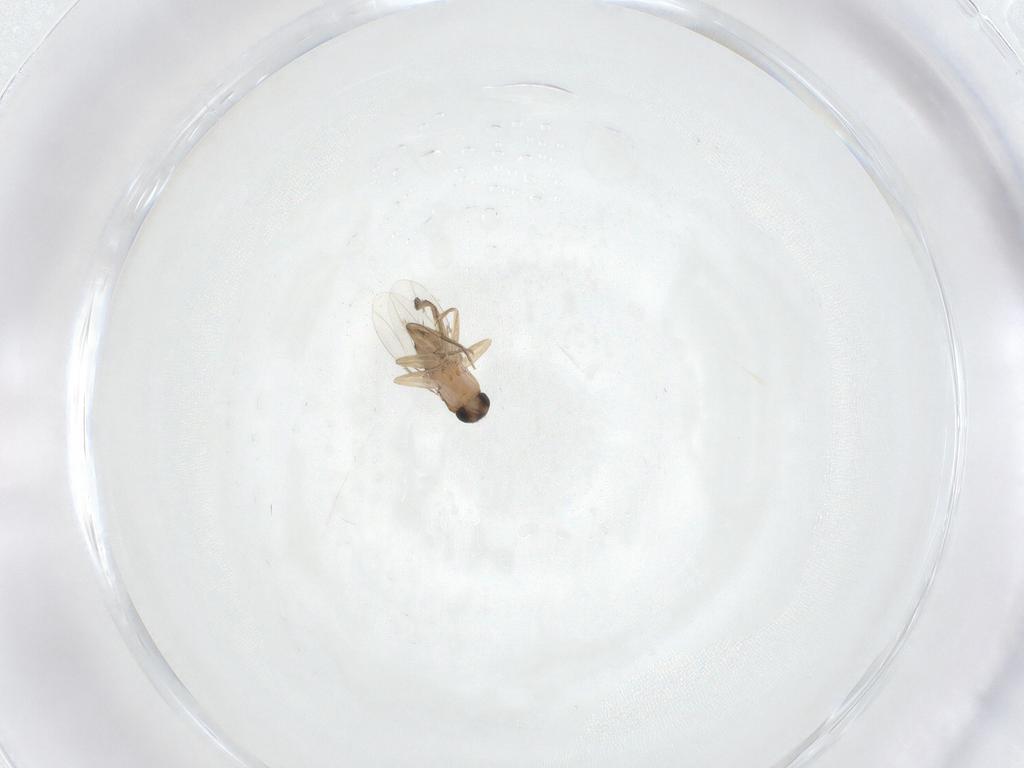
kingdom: Animalia
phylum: Arthropoda
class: Insecta
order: Diptera
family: Phoridae
